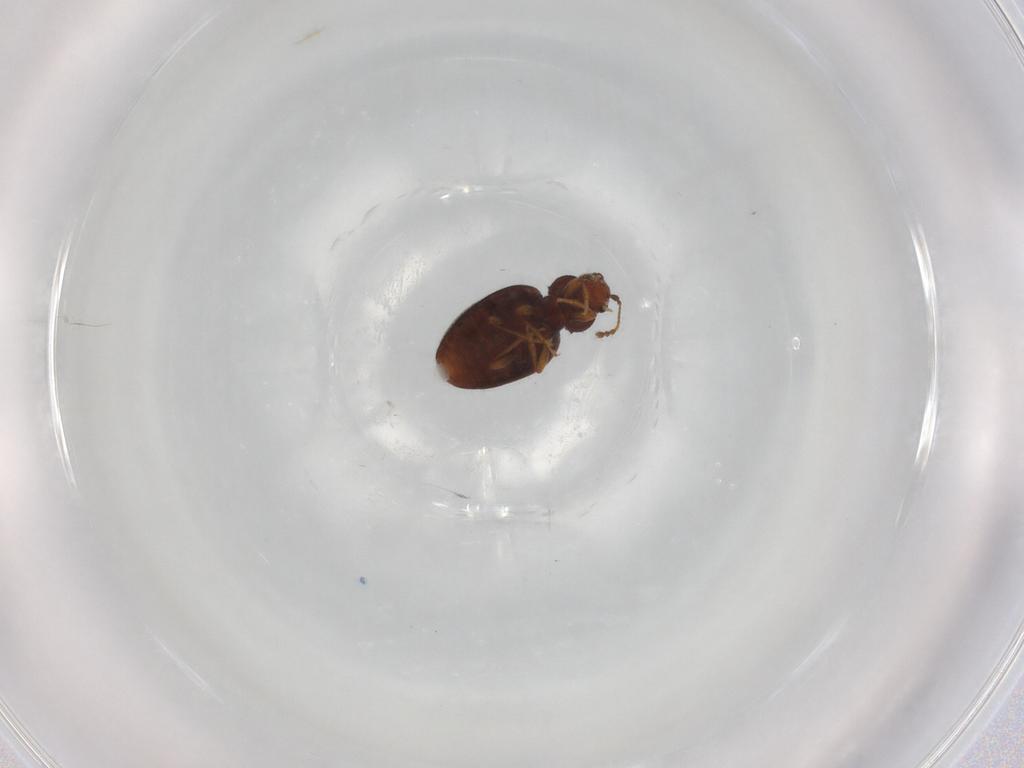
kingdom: Animalia
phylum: Arthropoda
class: Insecta
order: Coleoptera
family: Latridiidae
